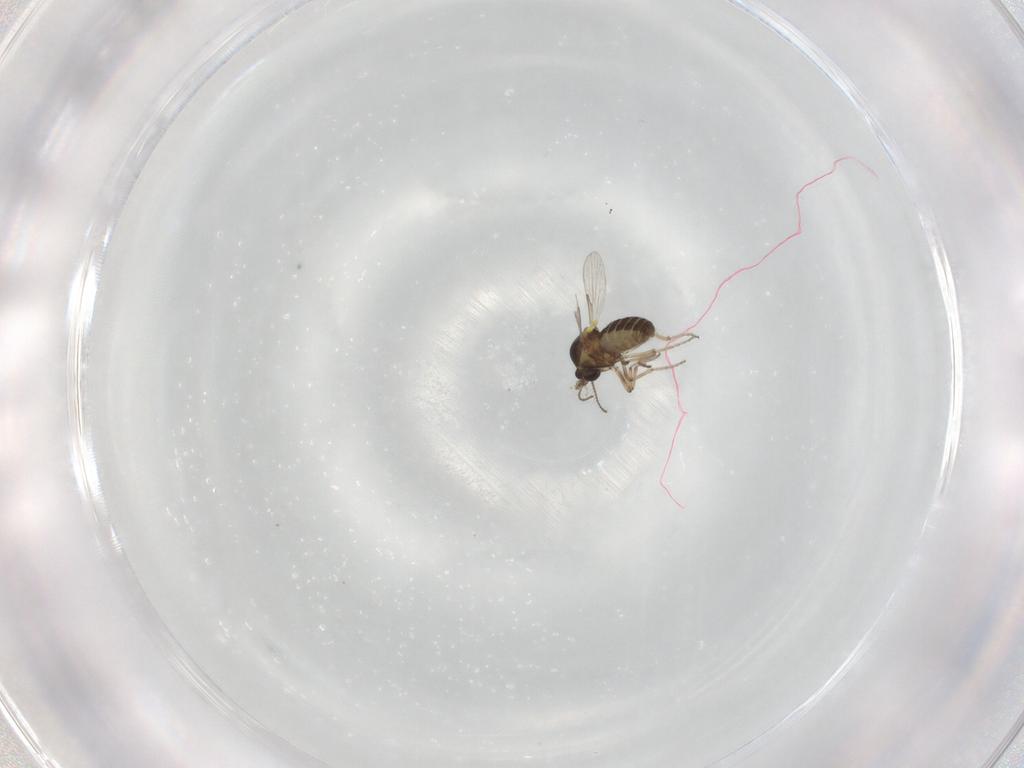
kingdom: Animalia
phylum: Arthropoda
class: Insecta
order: Diptera
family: Ceratopogonidae
